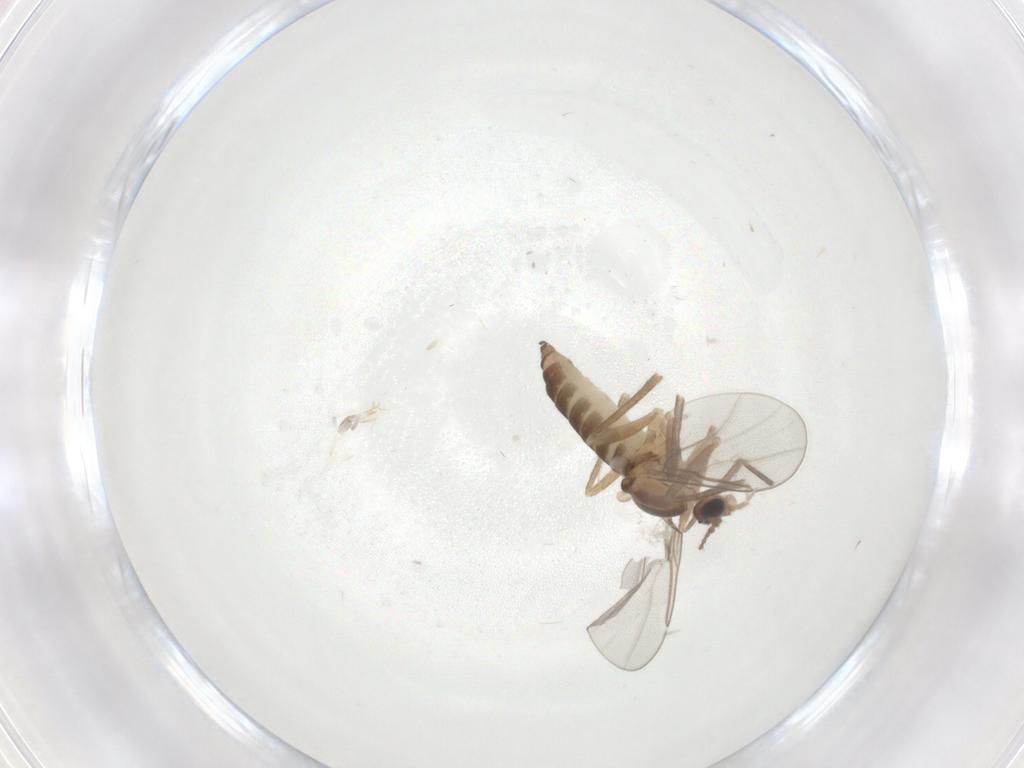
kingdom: Animalia
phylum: Arthropoda
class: Insecta
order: Diptera
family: Cecidomyiidae
